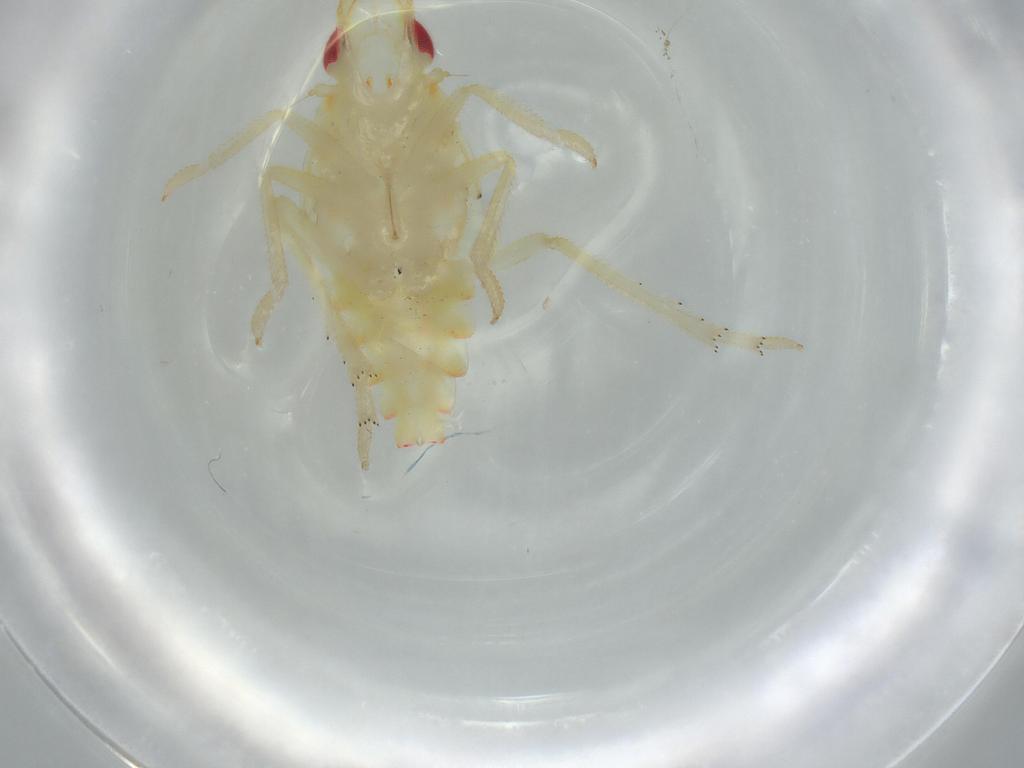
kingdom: Animalia
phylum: Arthropoda
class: Insecta
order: Hemiptera
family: Tropiduchidae
